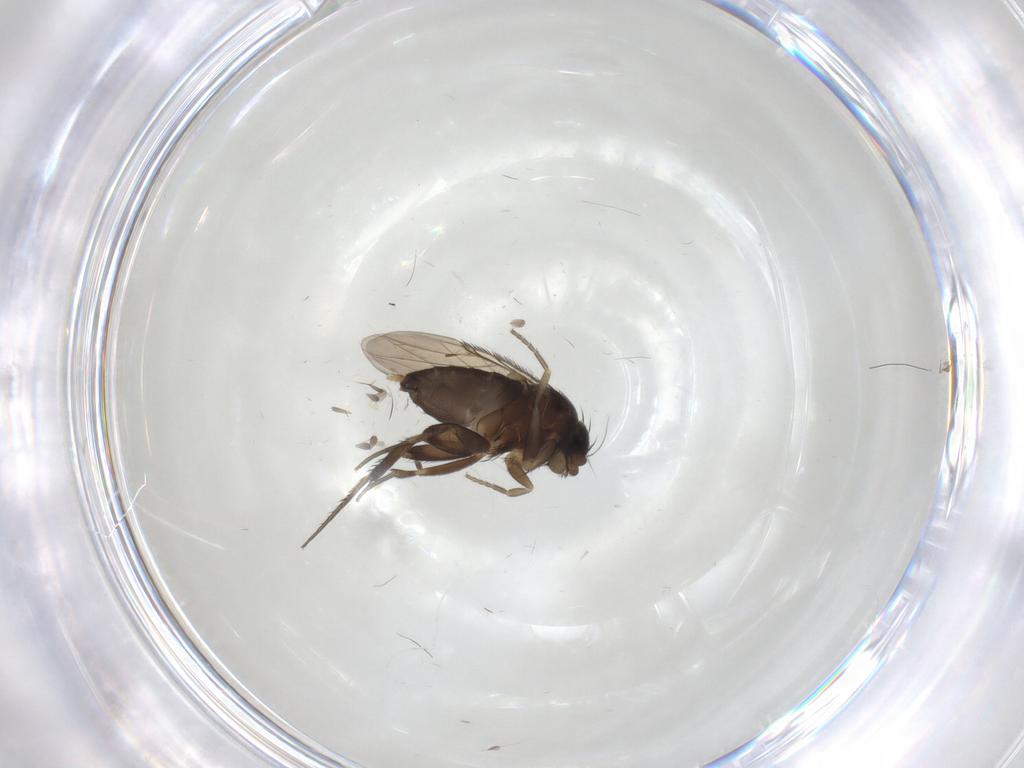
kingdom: Animalia
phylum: Arthropoda
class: Insecta
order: Diptera
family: Phoridae
